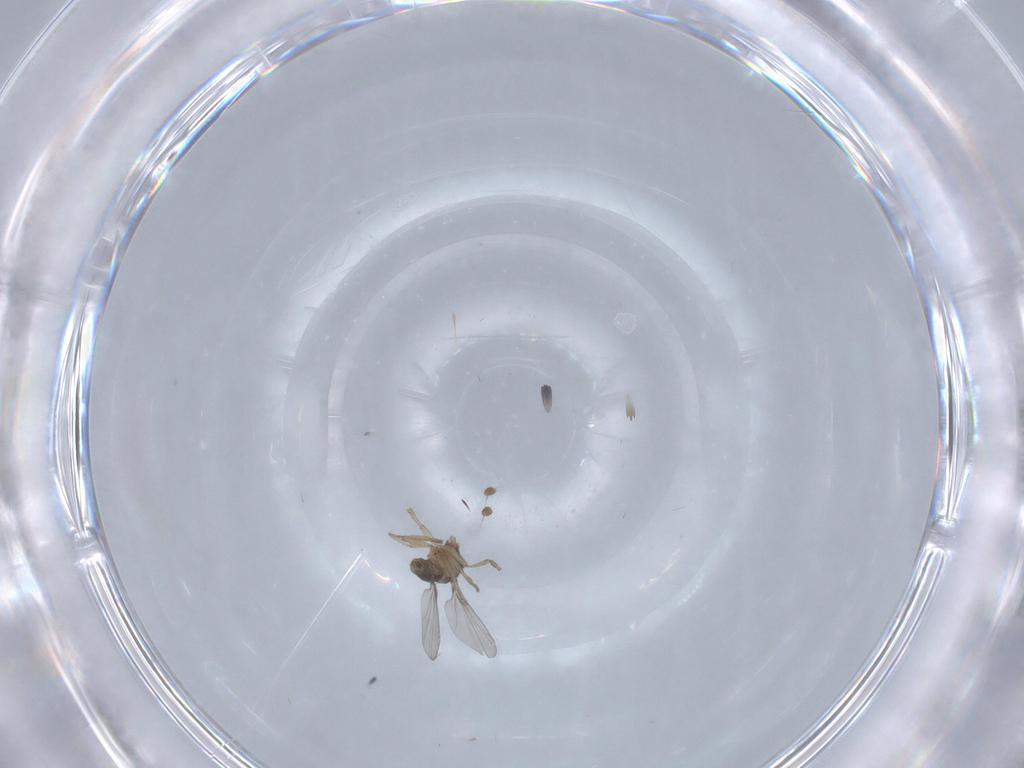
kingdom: Animalia
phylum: Arthropoda
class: Insecta
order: Diptera
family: Phoridae
